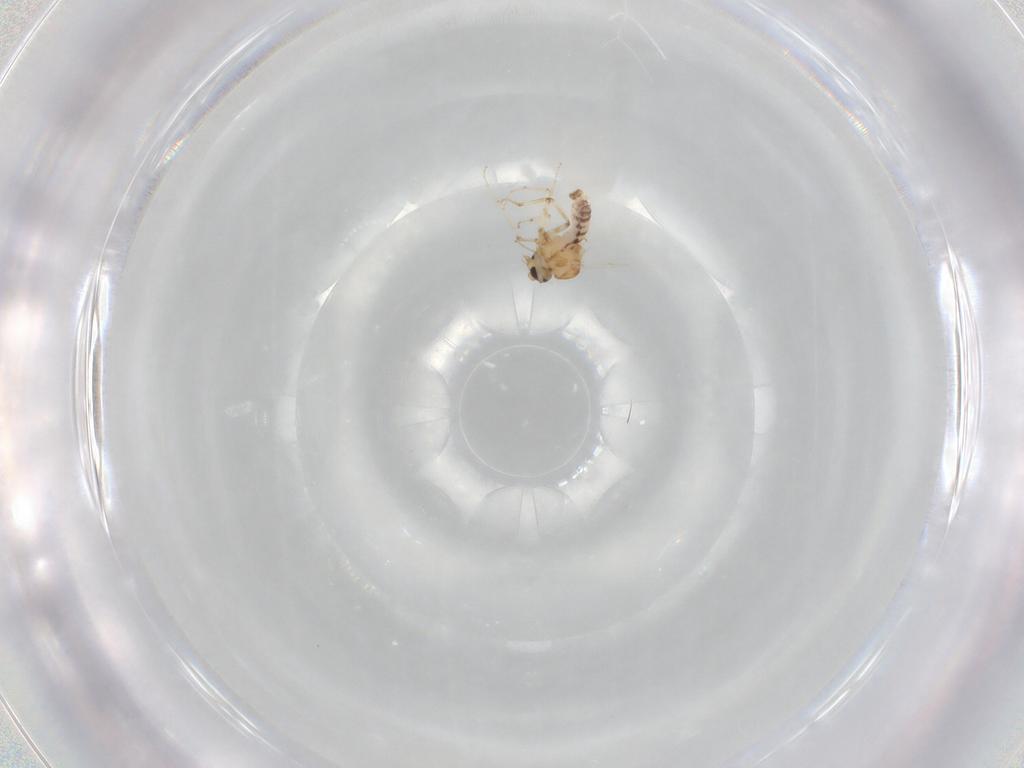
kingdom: Animalia
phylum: Arthropoda
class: Insecta
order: Diptera
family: Ceratopogonidae
